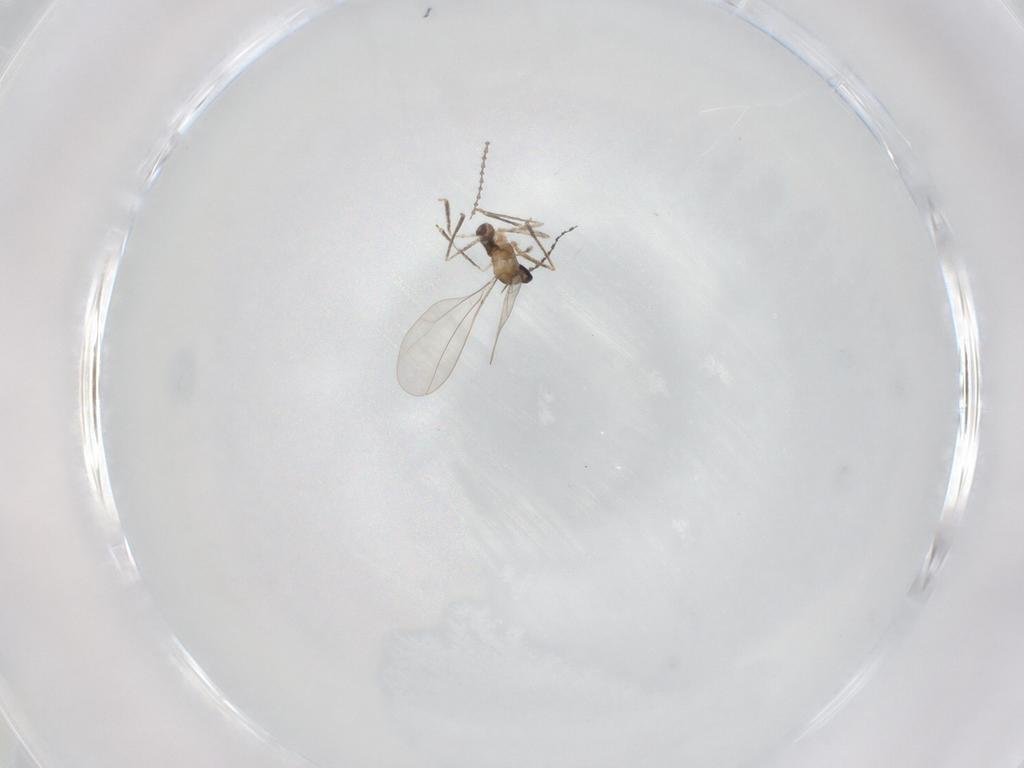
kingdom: Animalia
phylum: Arthropoda
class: Insecta
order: Diptera
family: Cecidomyiidae
